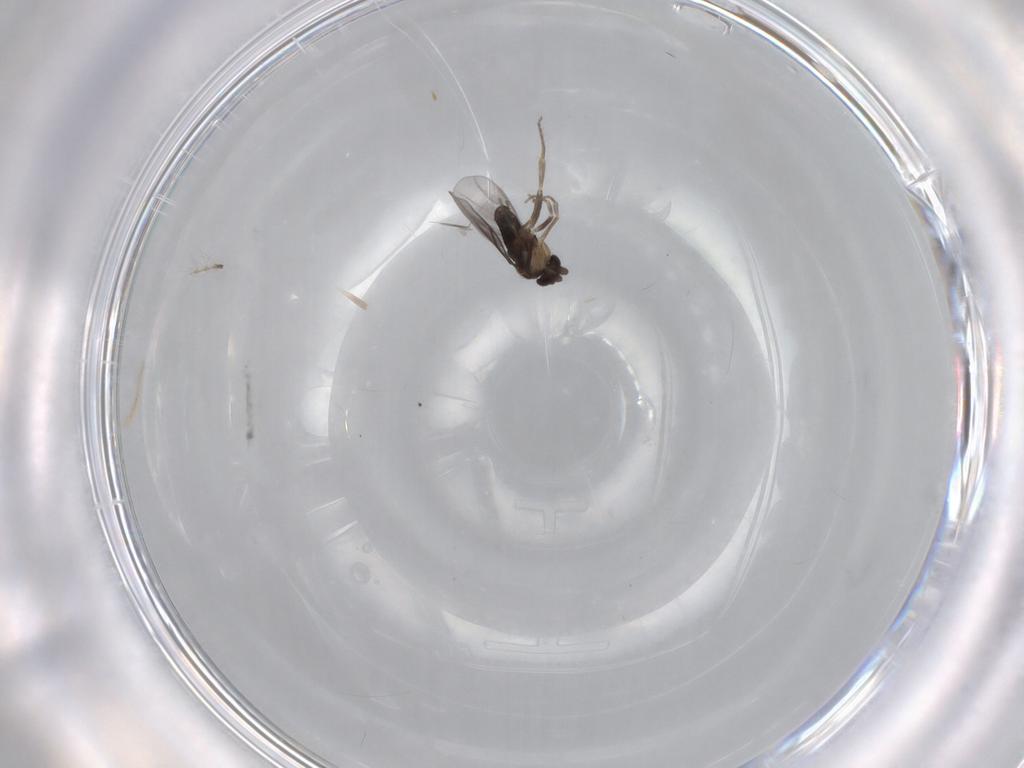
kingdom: Animalia
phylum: Arthropoda
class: Insecta
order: Diptera
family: Chironomidae
